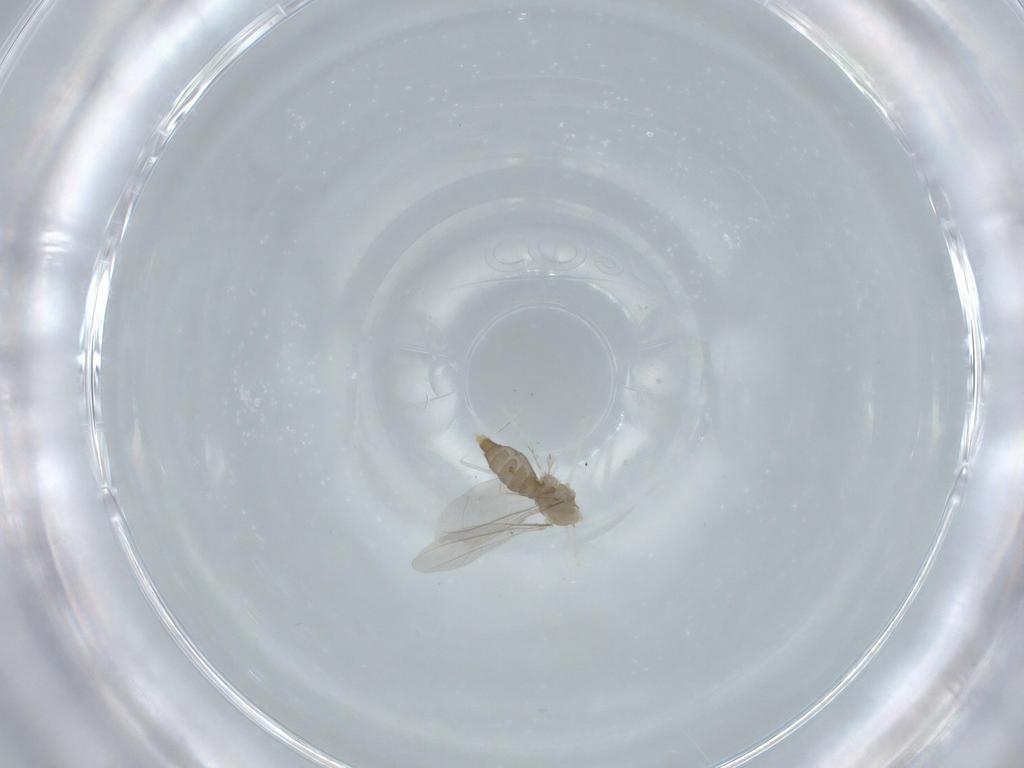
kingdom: Animalia
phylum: Arthropoda
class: Insecta
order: Diptera
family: Cecidomyiidae
